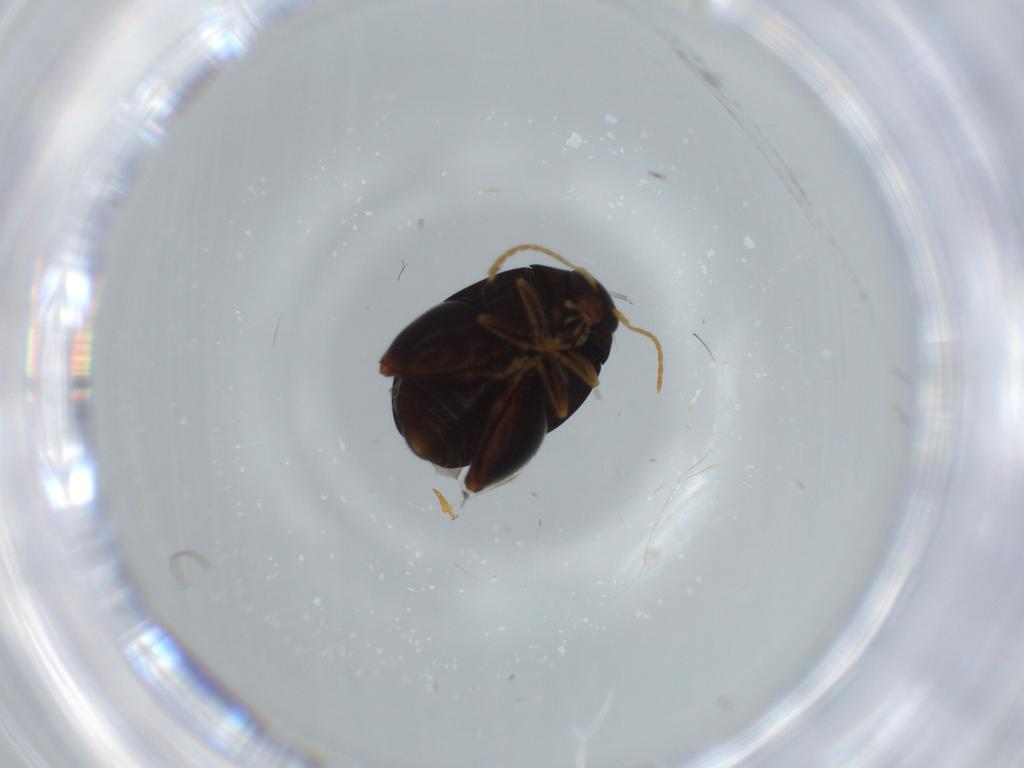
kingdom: Animalia
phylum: Arthropoda
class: Insecta
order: Coleoptera
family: Chrysomelidae
